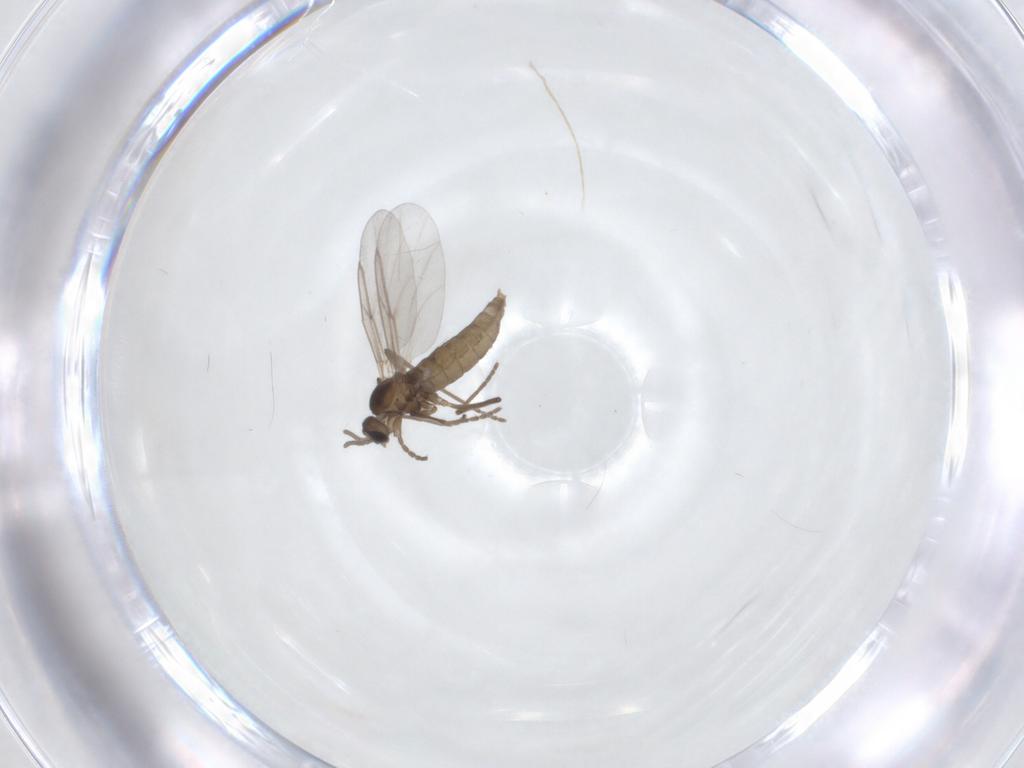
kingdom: Animalia
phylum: Arthropoda
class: Insecta
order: Diptera
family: Cecidomyiidae
